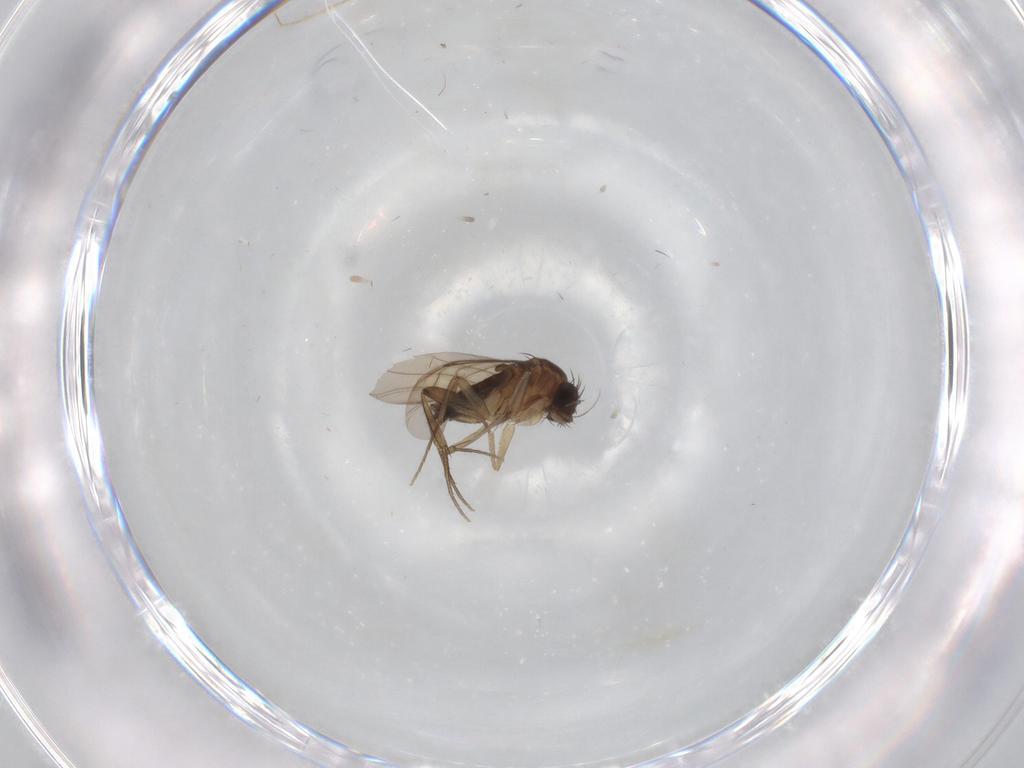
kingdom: Animalia
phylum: Arthropoda
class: Insecta
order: Diptera
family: Sciaridae
